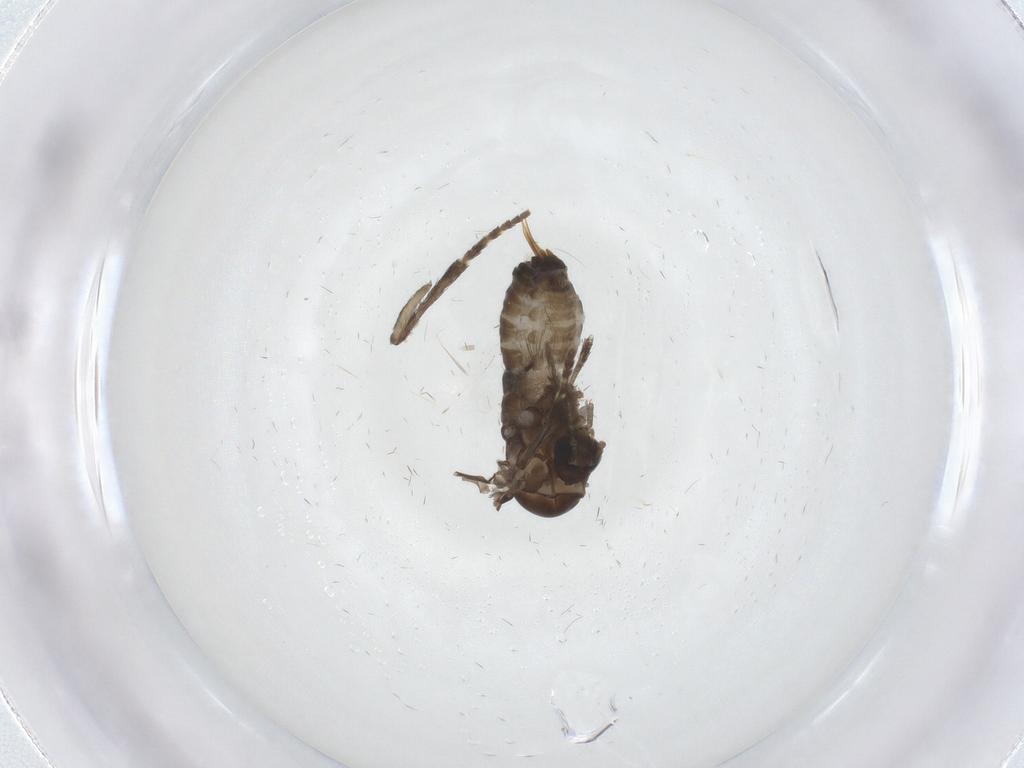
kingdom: Animalia
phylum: Arthropoda
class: Insecta
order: Diptera
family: Psychodidae
